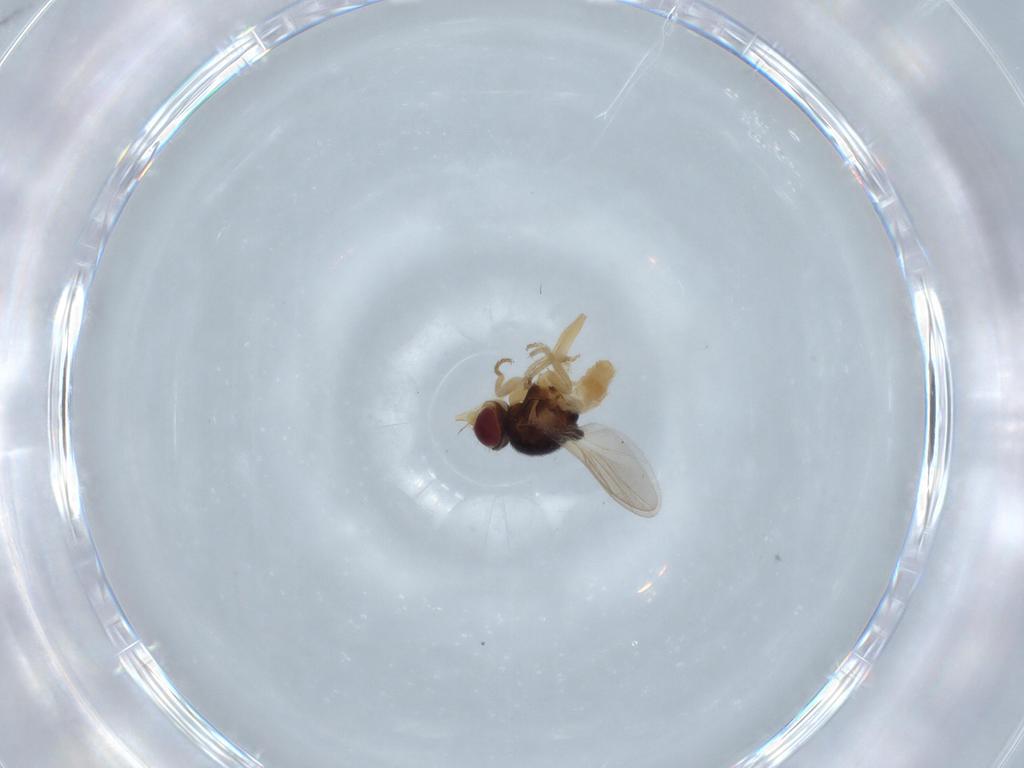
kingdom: Animalia
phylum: Arthropoda
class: Insecta
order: Diptera
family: Chloropidae
